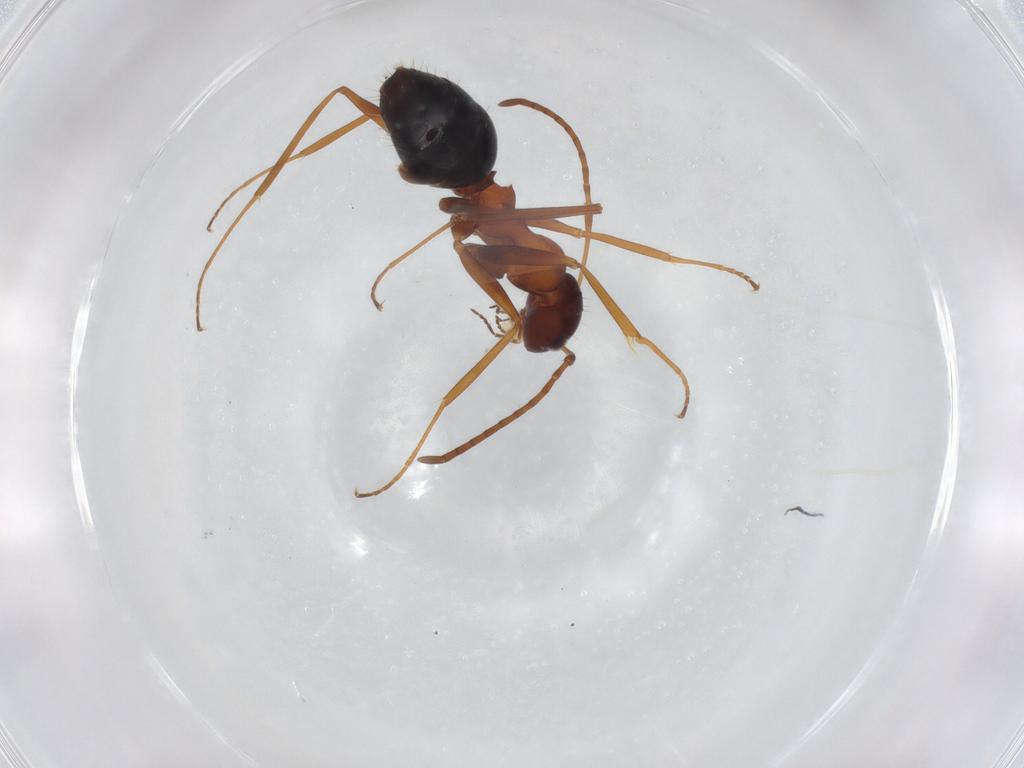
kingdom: Animalia
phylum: Arthropoda
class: Insecta
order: Hymenoptera
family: Formicidae
